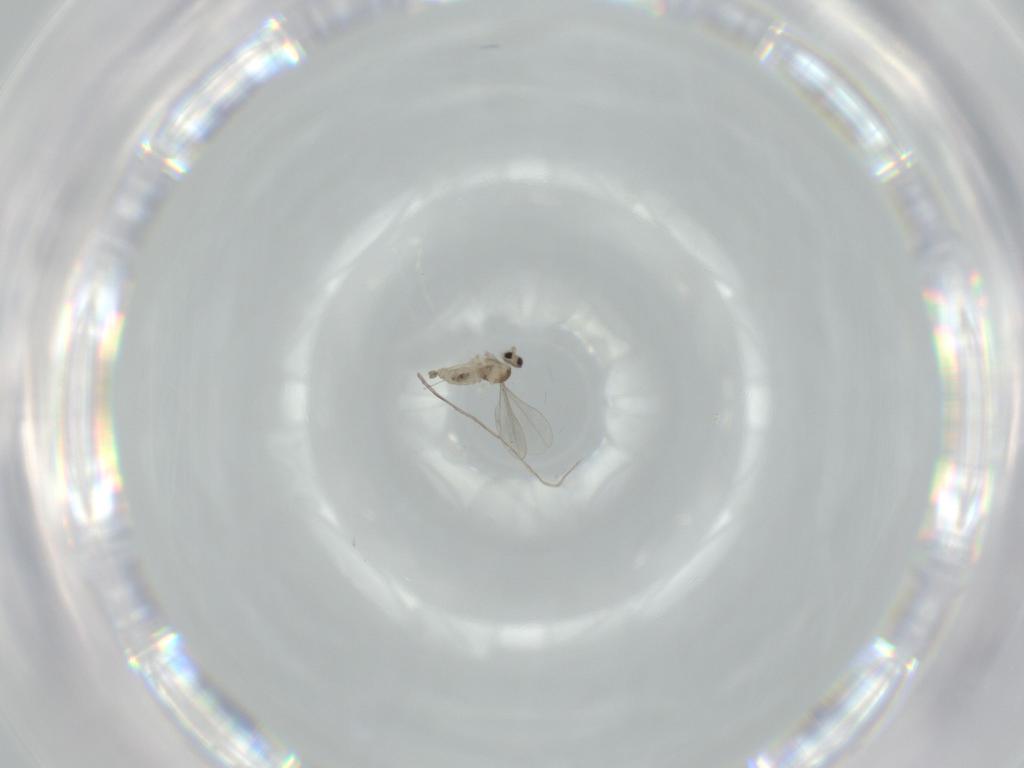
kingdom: Animalia
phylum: Arthropoda
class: Insecta
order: Diptera
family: Cecidomyiidae
